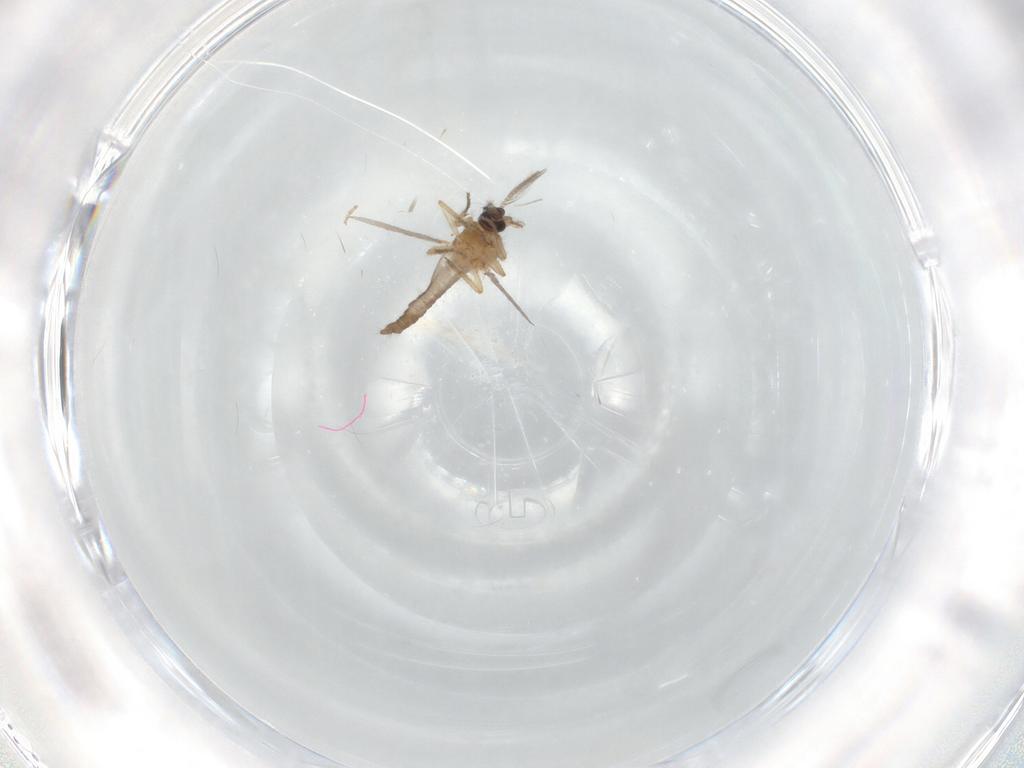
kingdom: Animalia
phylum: Arthropoda
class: Insecta
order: Diptera
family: Ceratopogonidae
